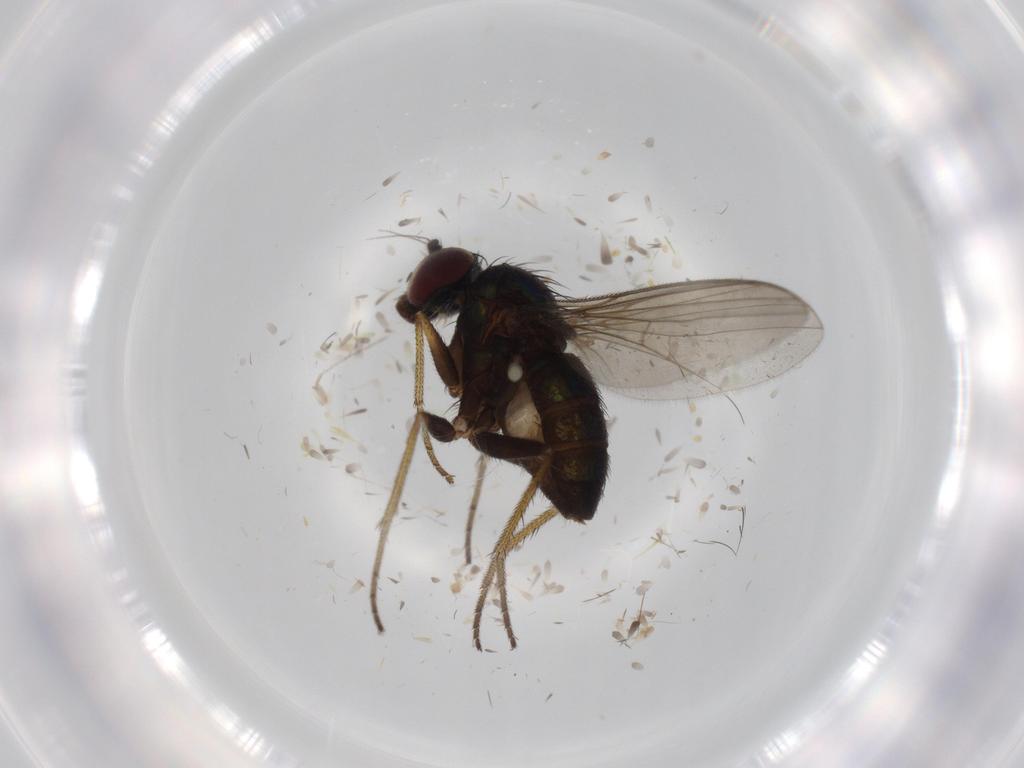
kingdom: Animalia
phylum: Arthropoda
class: Insecta
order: Diptera
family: Dolichopodidae
